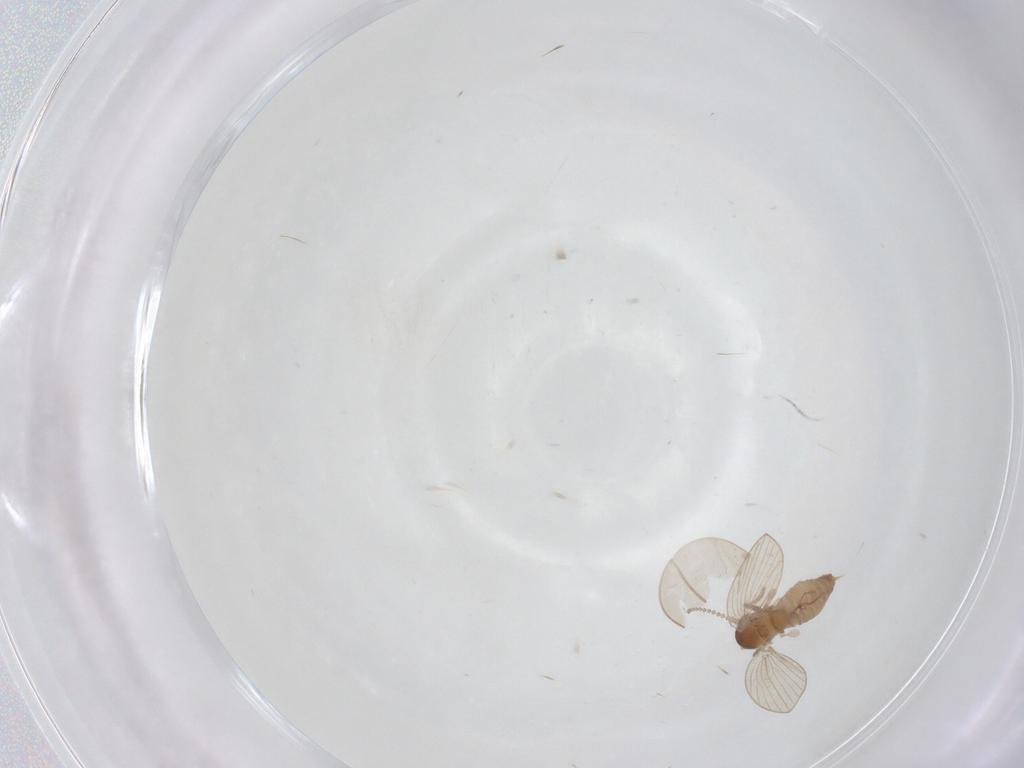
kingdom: Animalia
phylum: Arthropoda
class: Insecta
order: Diptera
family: Psychodidae
